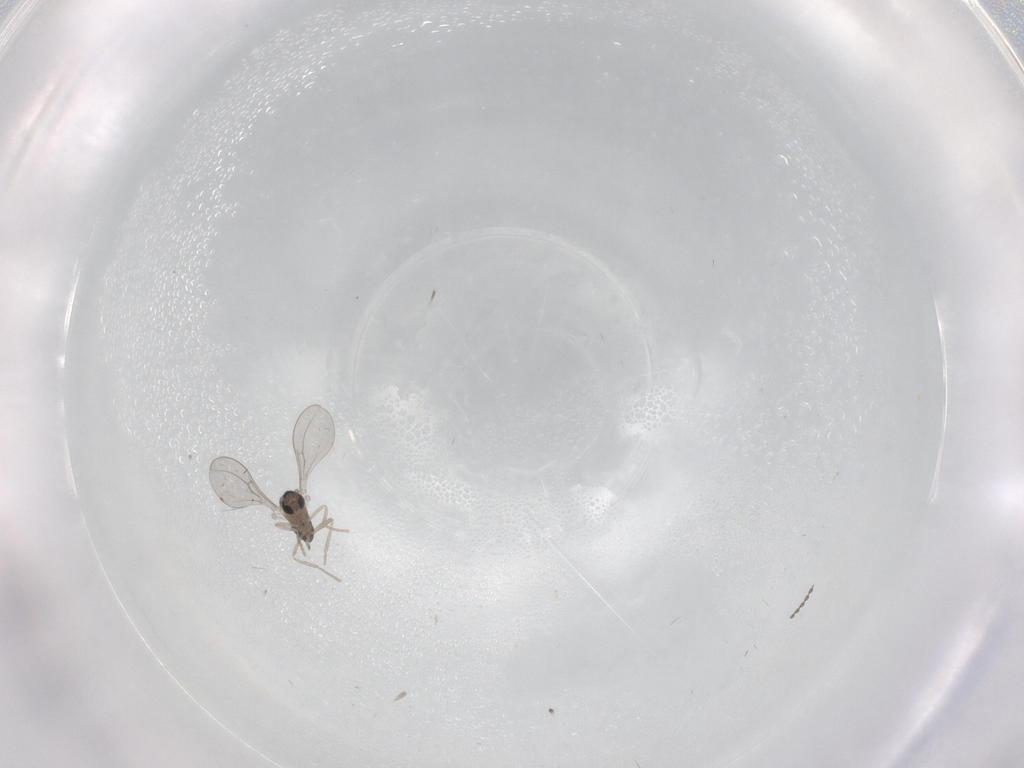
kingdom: Animalia
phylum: Arthropoda
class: Insecta
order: Diptera
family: Cecidomyiidae
